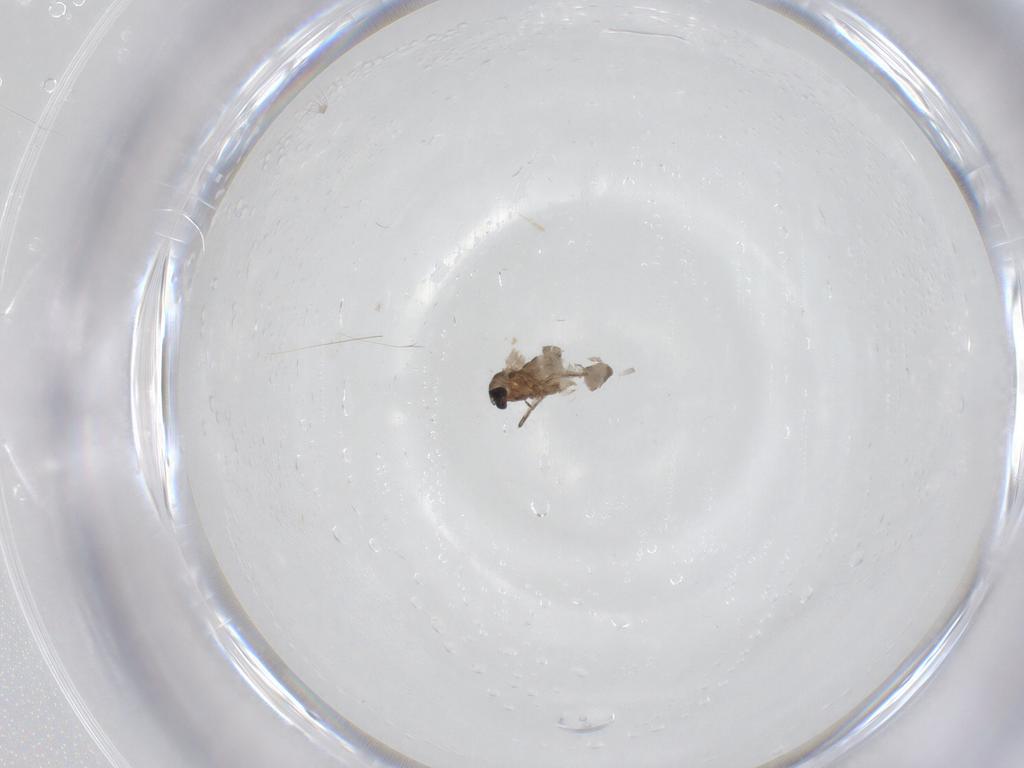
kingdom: Animalia
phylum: Arthropoda
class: Insecta
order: Diptera
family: Cecidomyiidae
